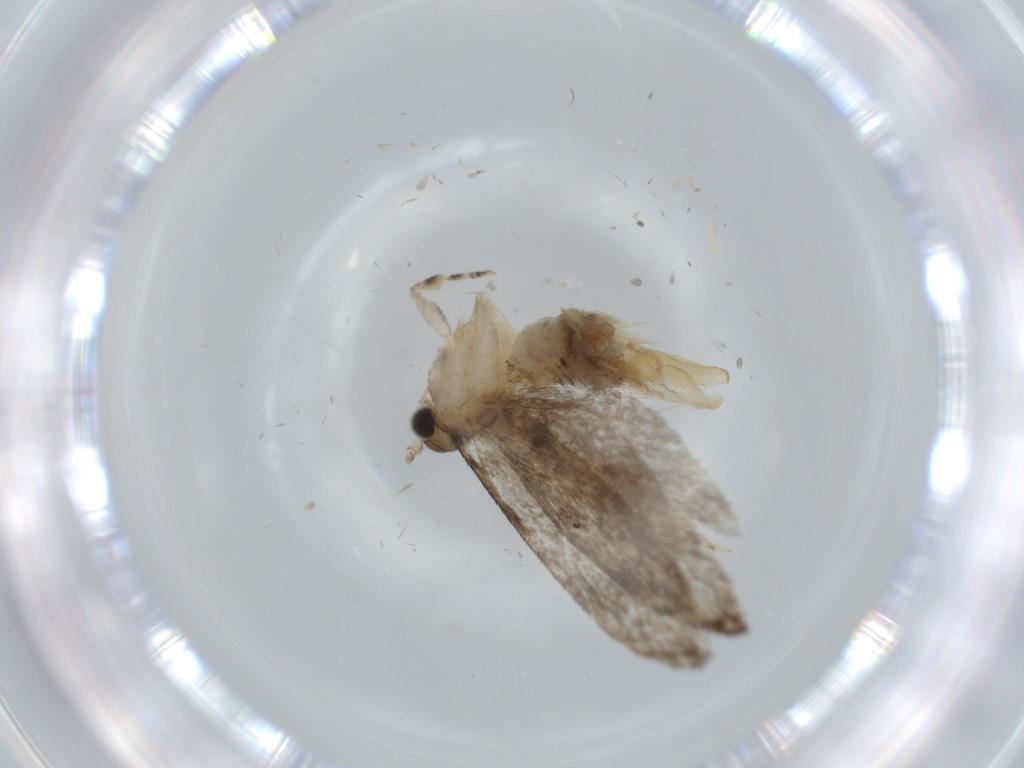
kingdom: Animalia
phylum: Arthropoda
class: Insecta
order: Lepidoptera
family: Tineidae
